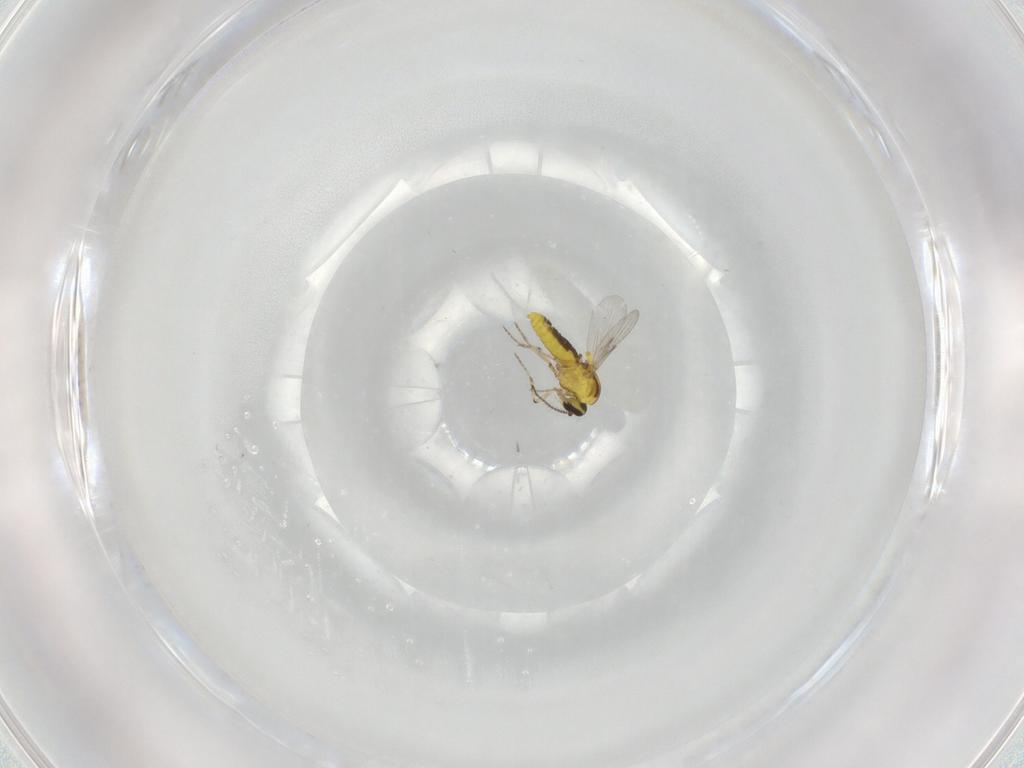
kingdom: Animalia
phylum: Arthropoda
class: Insecta
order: Diptera
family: Ceratopogonidae
